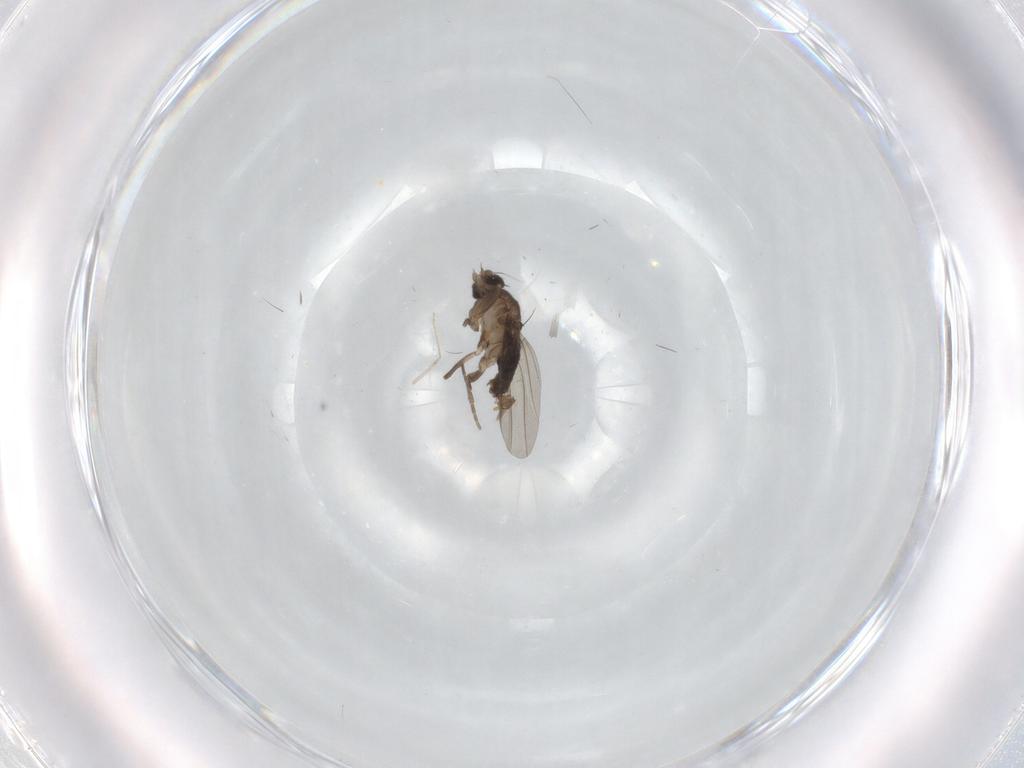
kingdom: Animalia
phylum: Arthropoda
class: Insecta
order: Diptera
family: Phoridae
